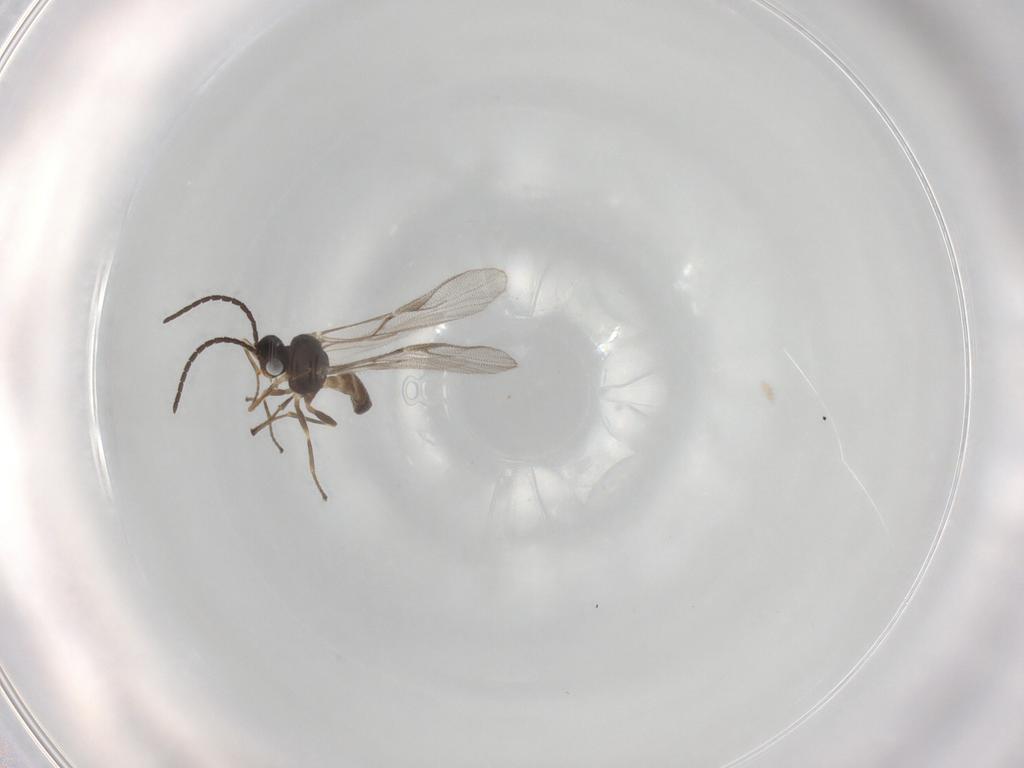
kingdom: Animalia
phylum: Arthropoda
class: Insecta
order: Hymenoptera
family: Braconidae
